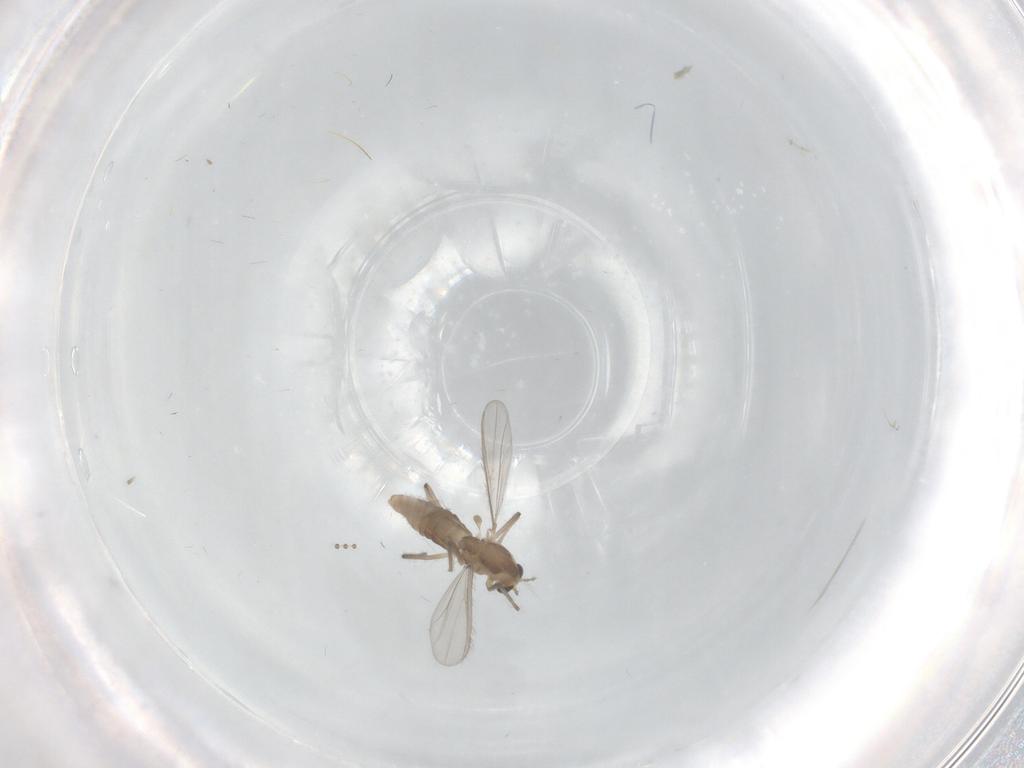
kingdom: Animalia
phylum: Arthropoda
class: Insecta
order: Diptera
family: Chironomidae
